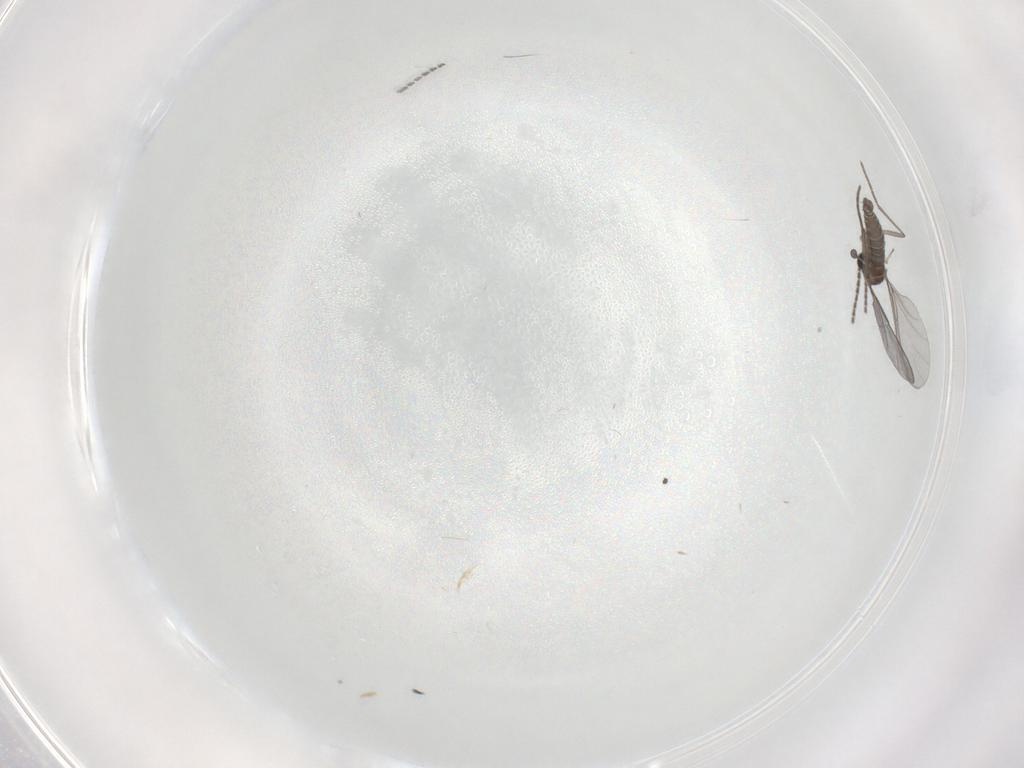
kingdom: Animalia
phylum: Arthropoda
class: Insecta
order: Diptera
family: Sciaridae
